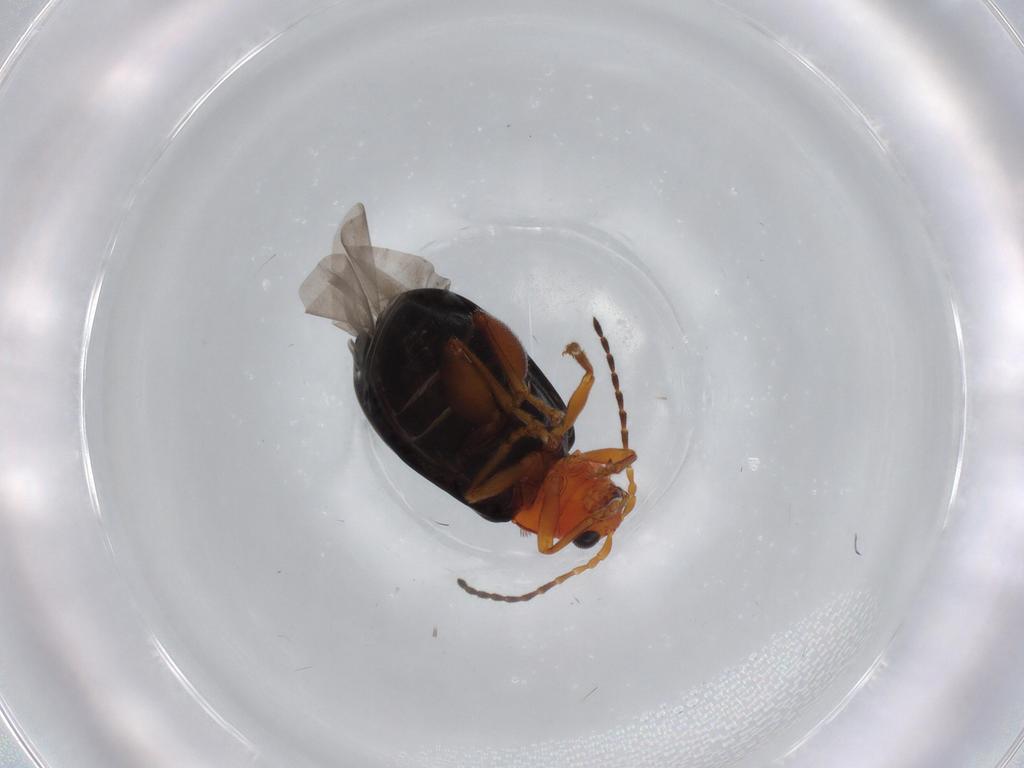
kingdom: Animalia
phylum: Arthropoda
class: Insecta
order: Coleoptera
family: Chrysomelidae
